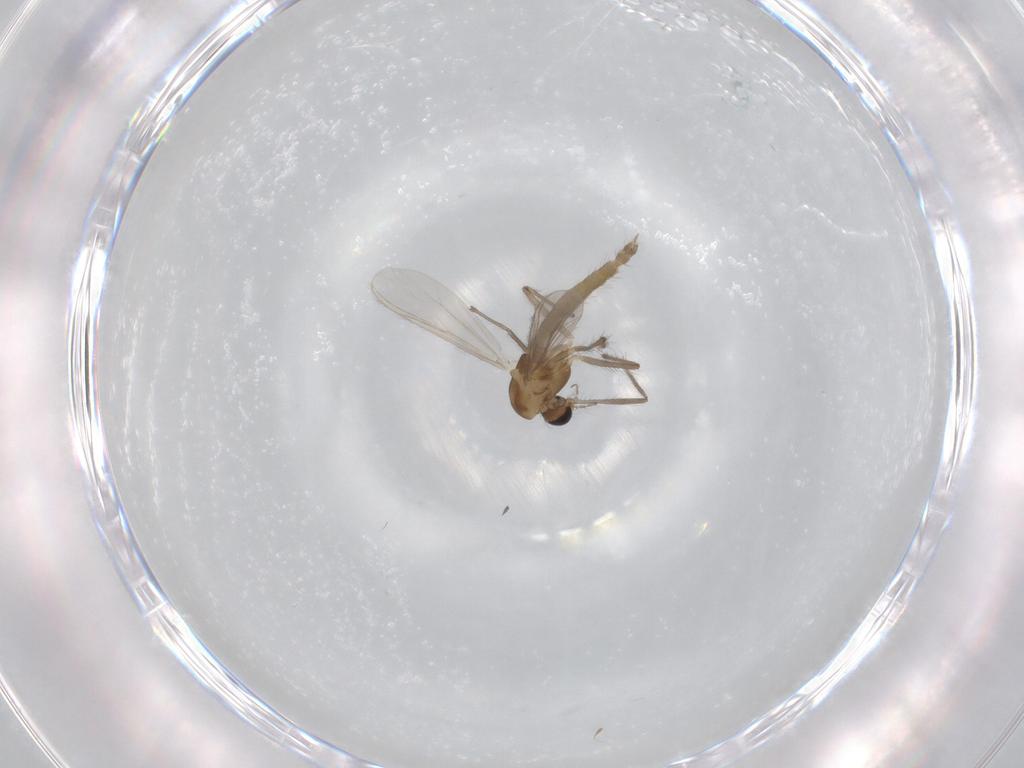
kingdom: Animalia
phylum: Arthropoda
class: Insecta
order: Diptera
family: Chironomidae
